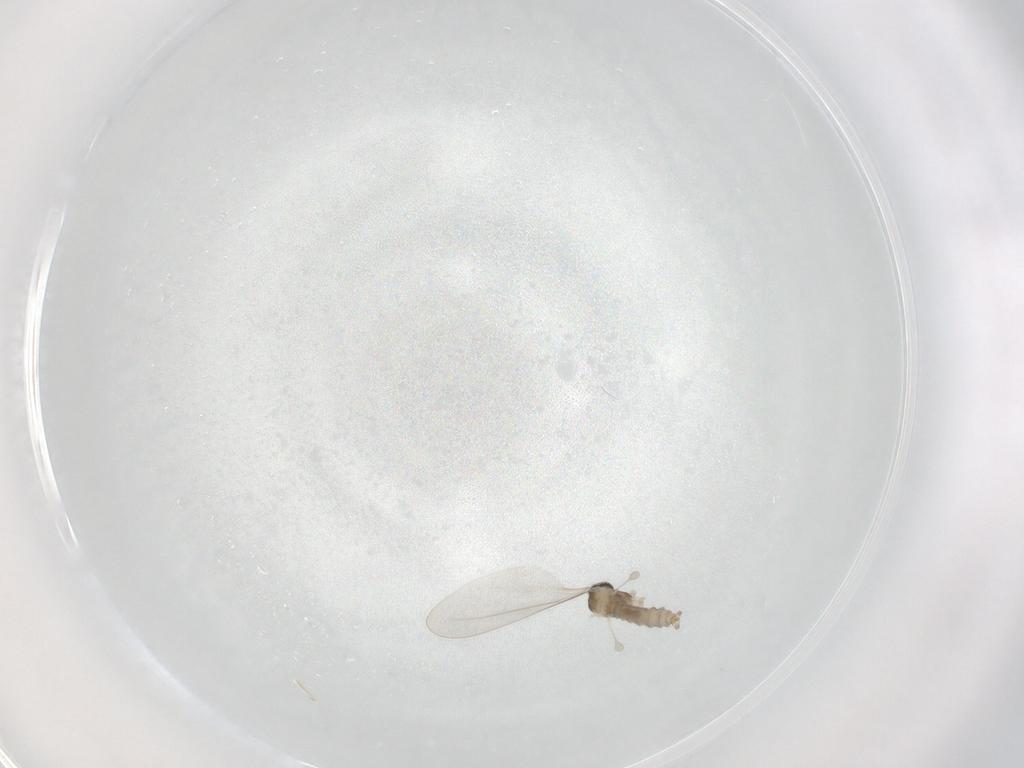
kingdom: Animalia
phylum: Arthropoda
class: Insecta
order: Diptera
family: Cecidomyiidae
